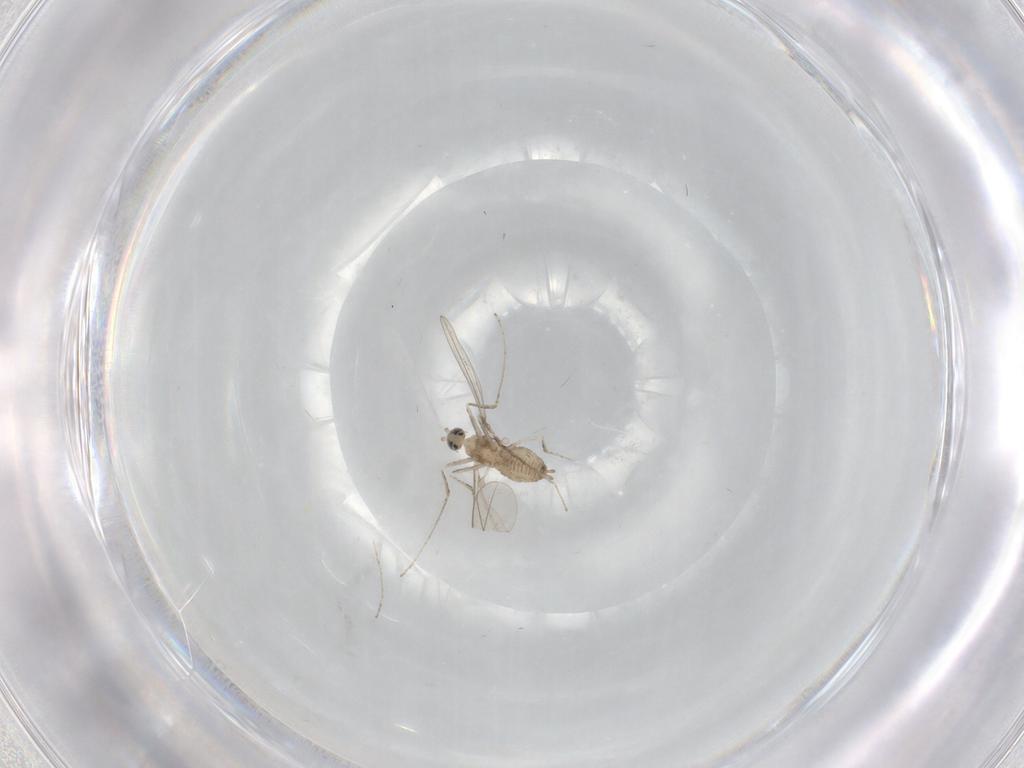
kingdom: Animalia
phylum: Arthropoda
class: Insecta
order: Diptera
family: Cecidomyiidae
